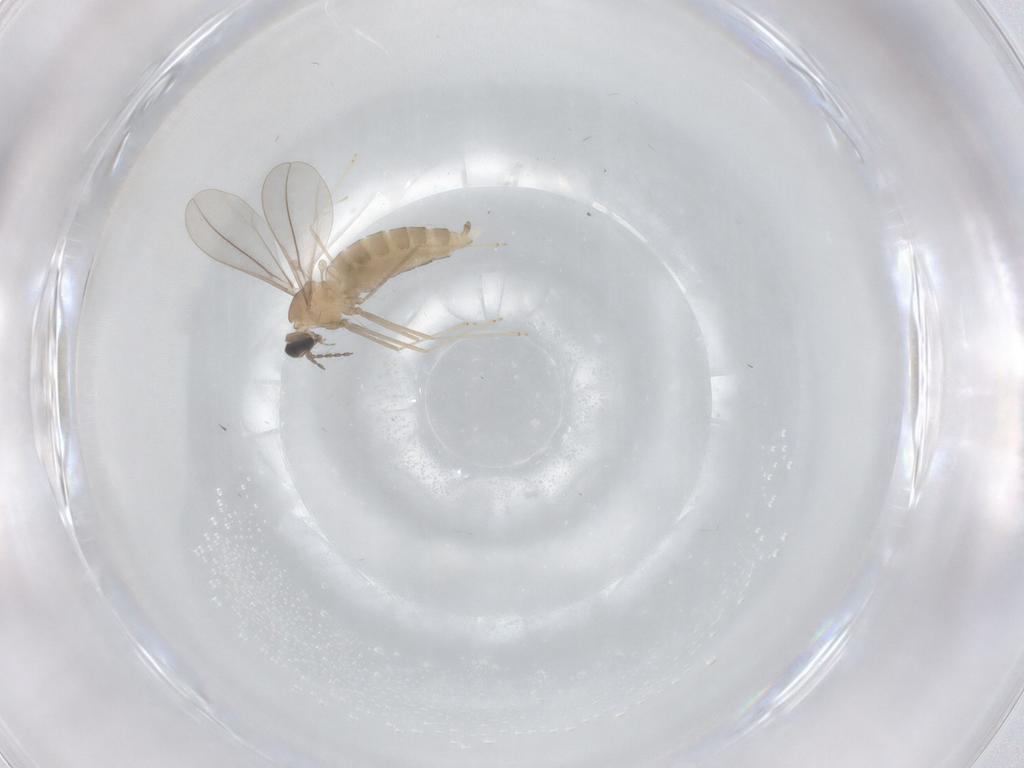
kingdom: Animalia
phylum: Arthropoda
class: Insecta
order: Diptera
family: Cecidomyiidae
